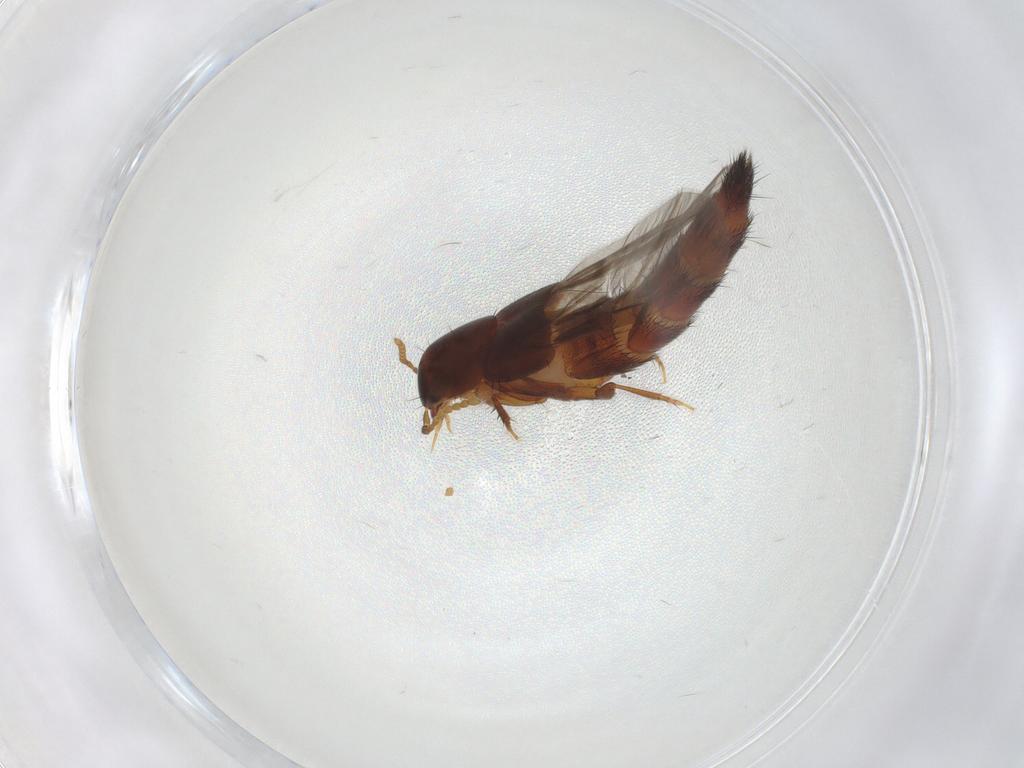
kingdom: Animalia
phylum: Arthropoda
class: Insecta
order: Coleoptera
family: Staphylinidae
